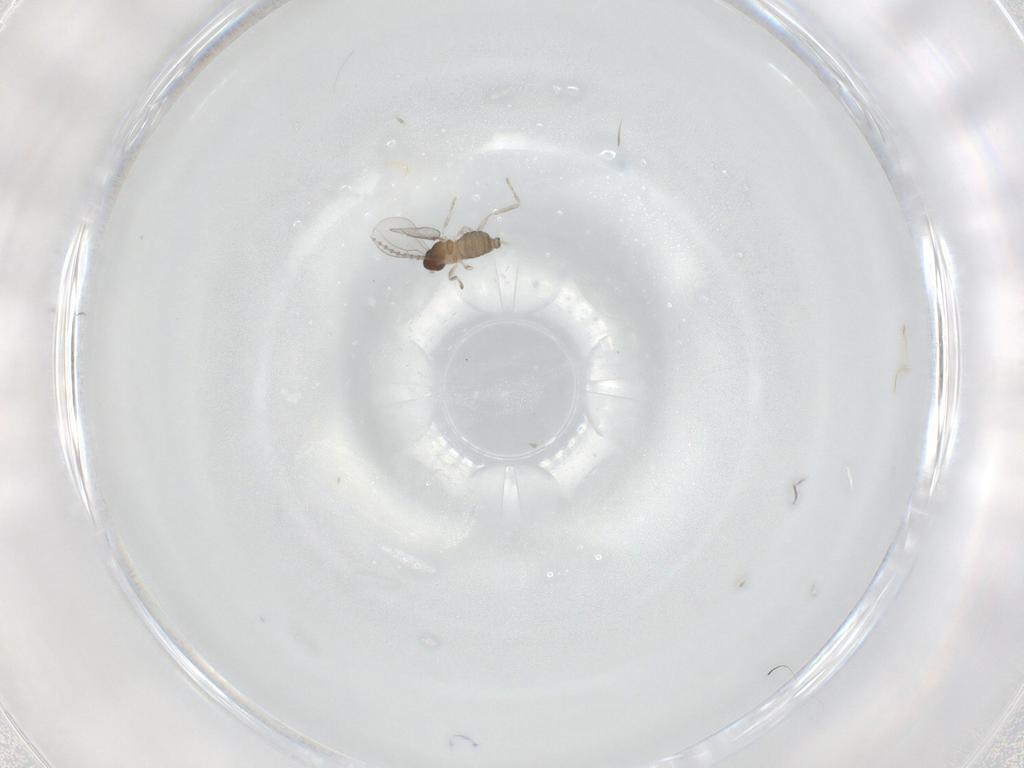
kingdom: Animalia
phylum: Arthropoda
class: Insecta
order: Diptera
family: Cecidomyiidae
